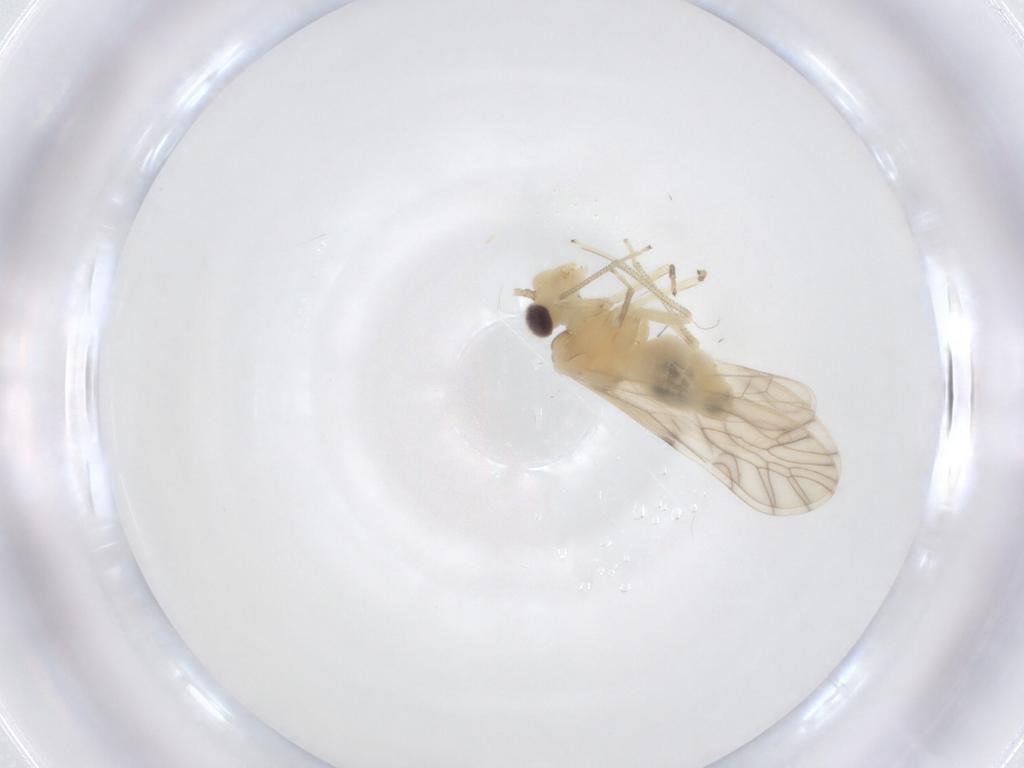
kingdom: Animalia
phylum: Arthropoda
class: Insecta
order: Psocodea
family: Caeciliusidae
